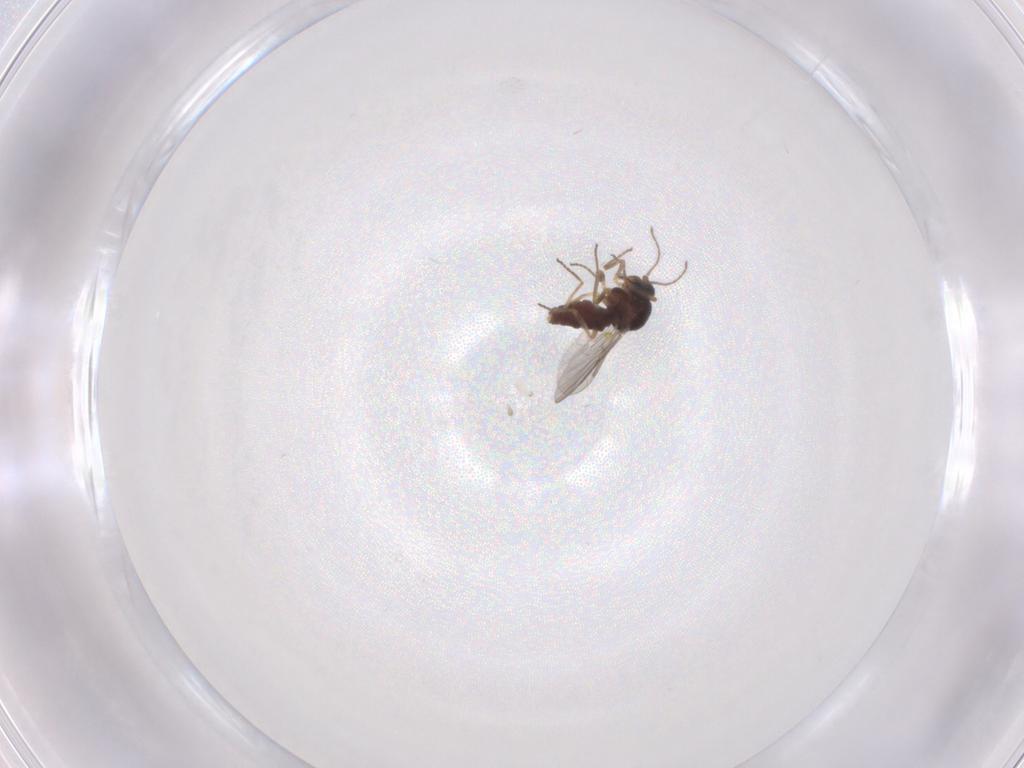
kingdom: Animalia
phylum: Arthropoda
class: Insecta
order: Diptera
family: Ceratopogonidae
